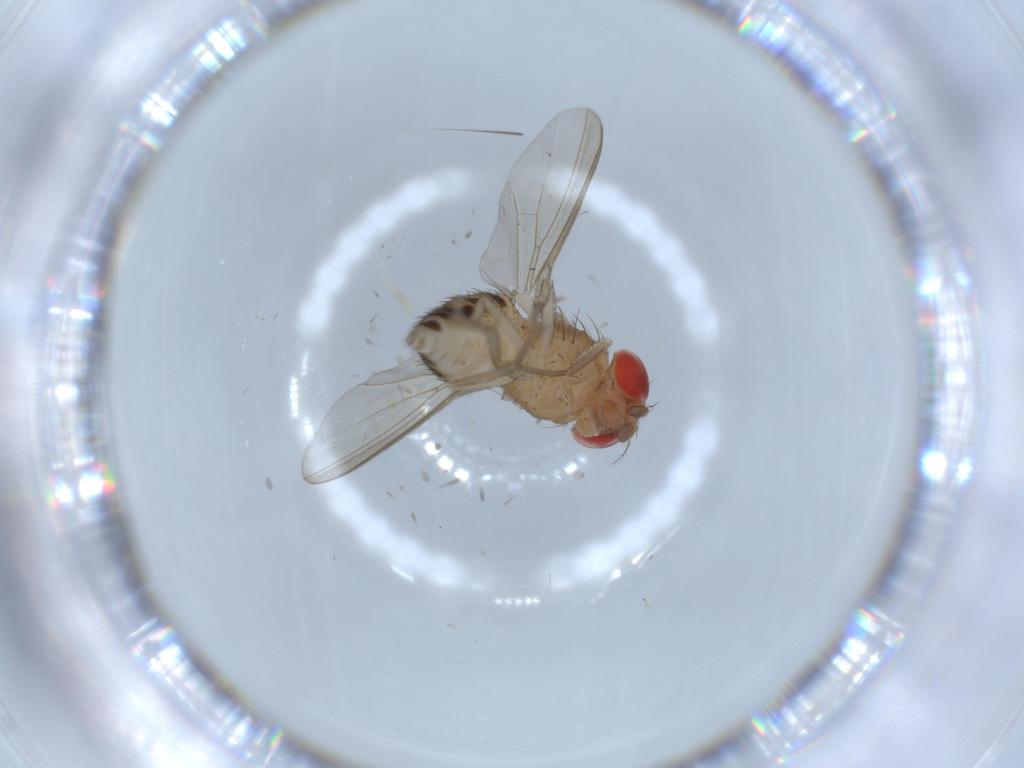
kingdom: Animalia
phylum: Arthropoda
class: Insecta
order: Diptera
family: Drosophilidae
